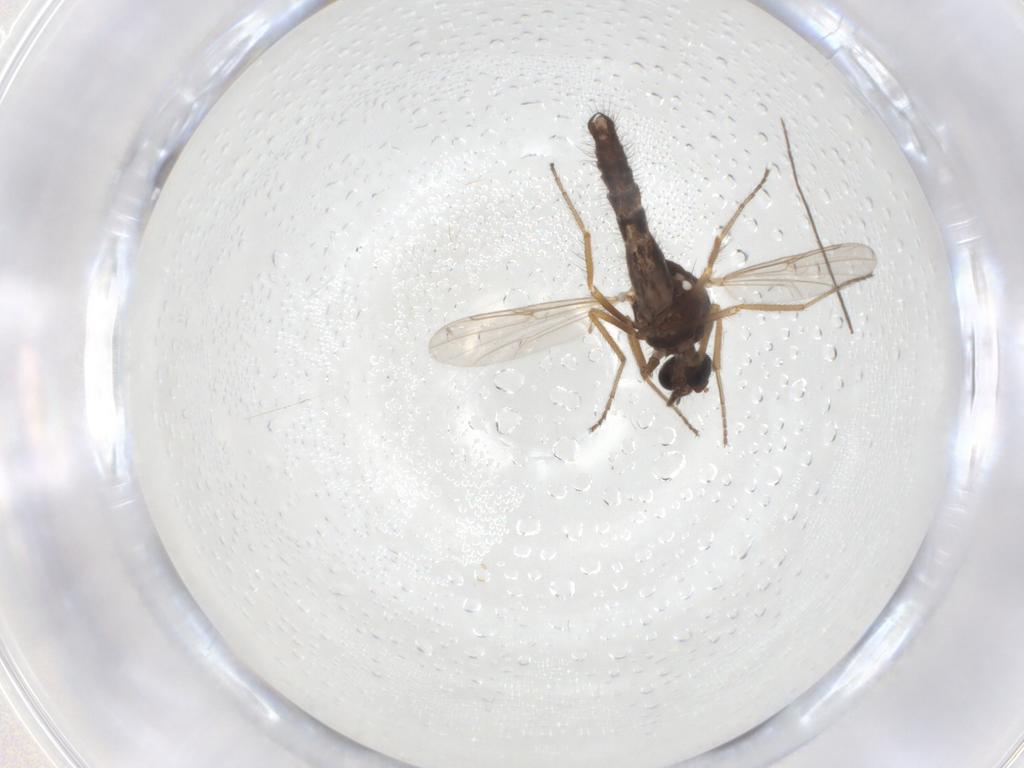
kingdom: Animalia
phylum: Arthropoda
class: Insecta
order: Diptera
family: Ceratopogonidae
